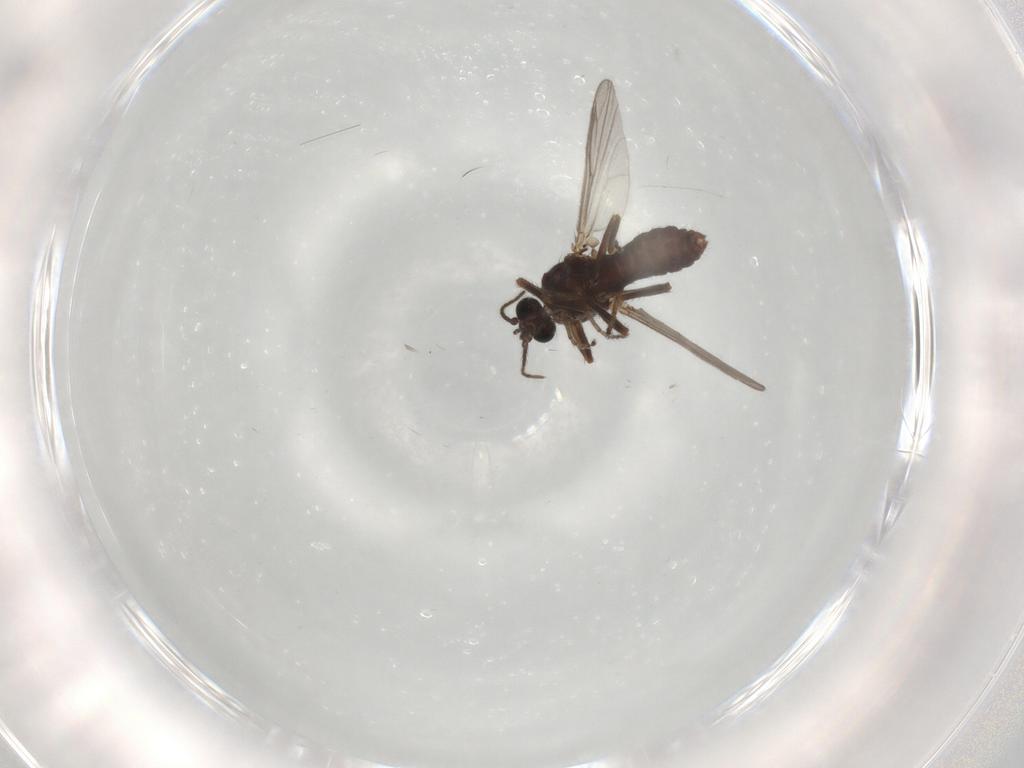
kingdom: Animalia
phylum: Arthropoda
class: Insecta
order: Diptera
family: Ceratopogonidae
